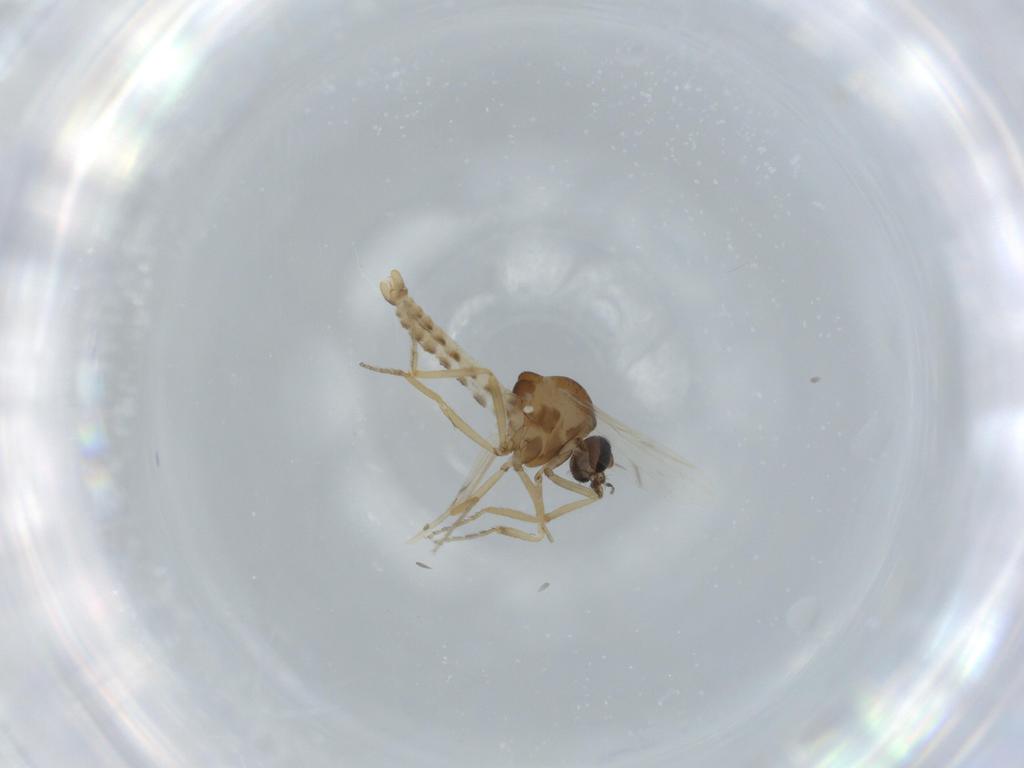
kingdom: Animalia
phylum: Arthropoda
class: Insecta
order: Diptera
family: Ceratopogonidae
